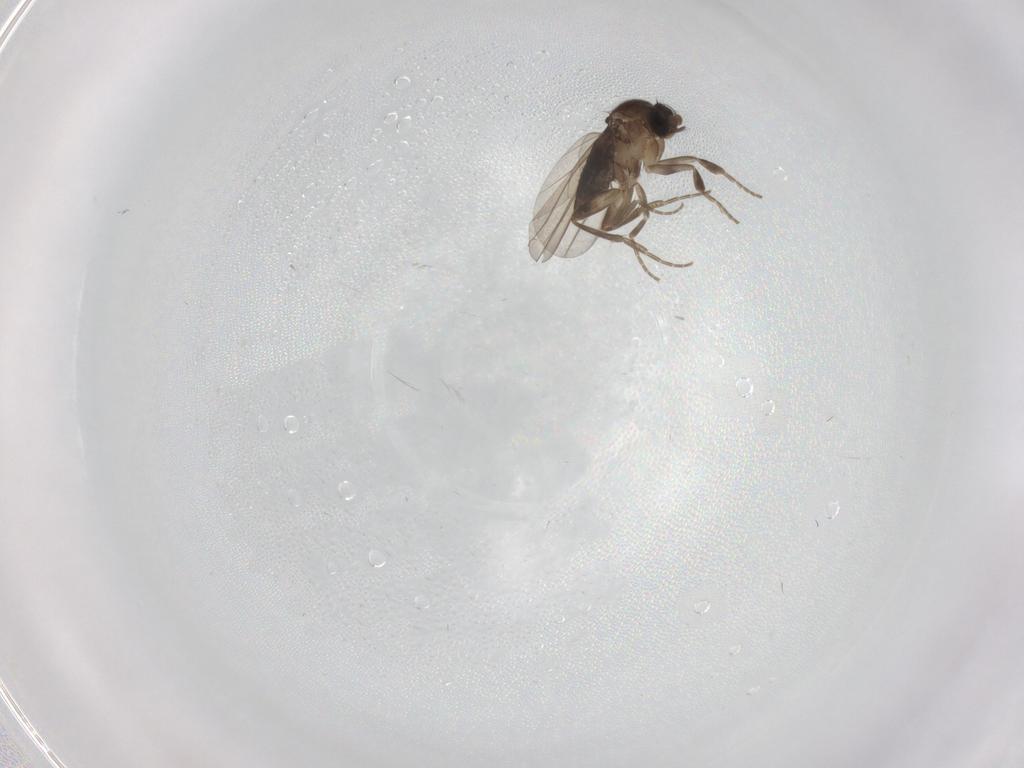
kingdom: Animalia
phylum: Arthropoda
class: Insecta
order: Diptera
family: Phoridae
